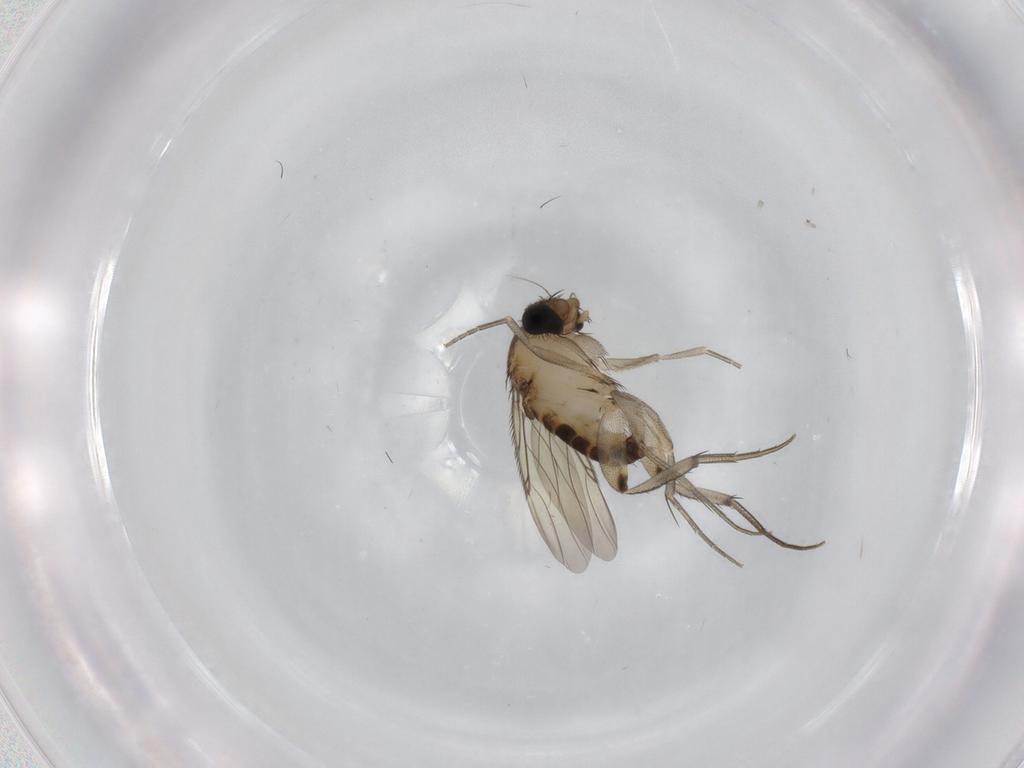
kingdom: Animalia
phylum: Arthropoda
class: Insecta
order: Diptera
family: Phoridae
